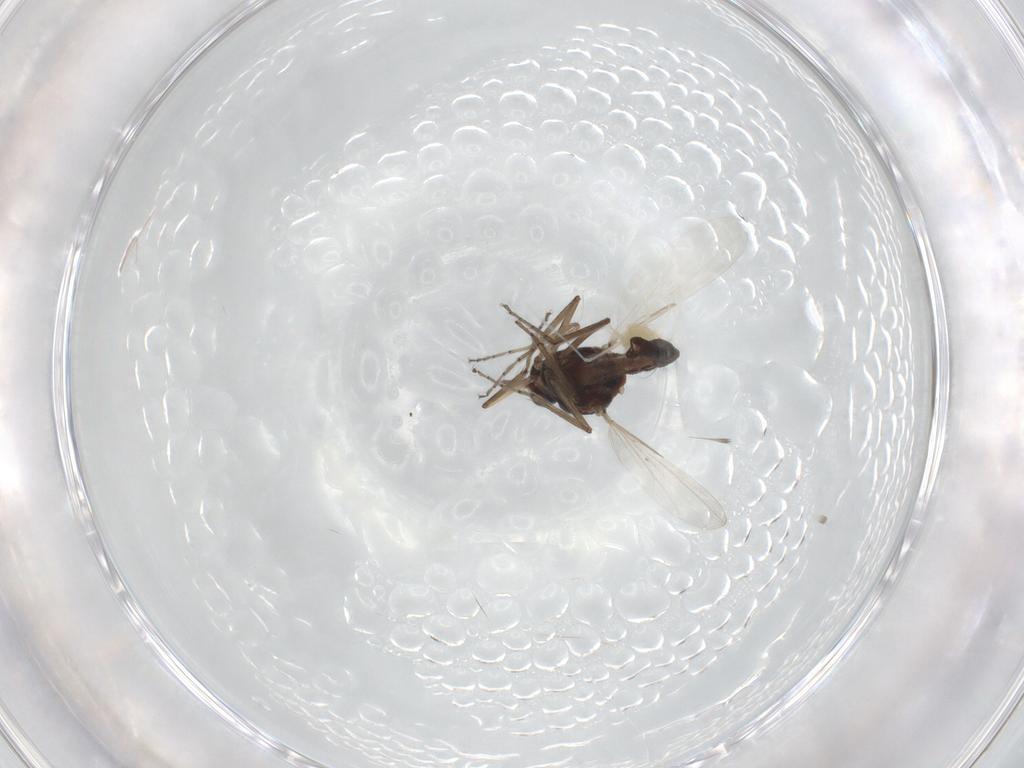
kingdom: Animalia
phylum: Arthropoda
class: Insecta
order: Diptera
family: Ceratopogonidae
